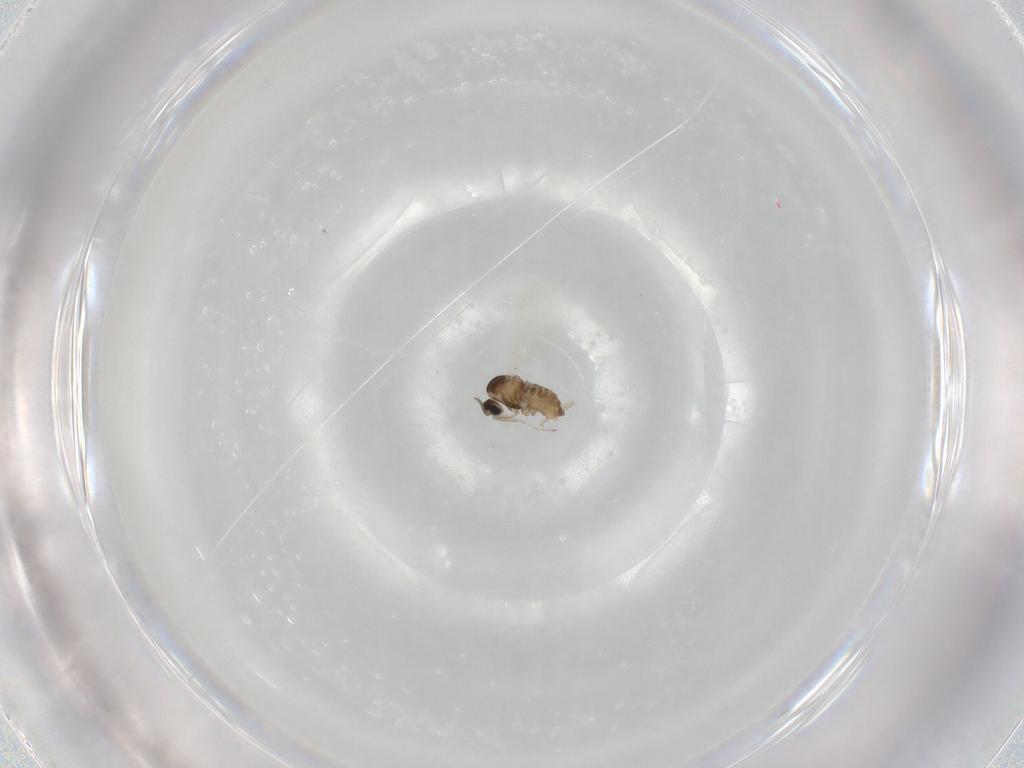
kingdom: Animalia
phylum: Arthropoda
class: Insecta
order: Diptera
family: Cecidomyiidae
